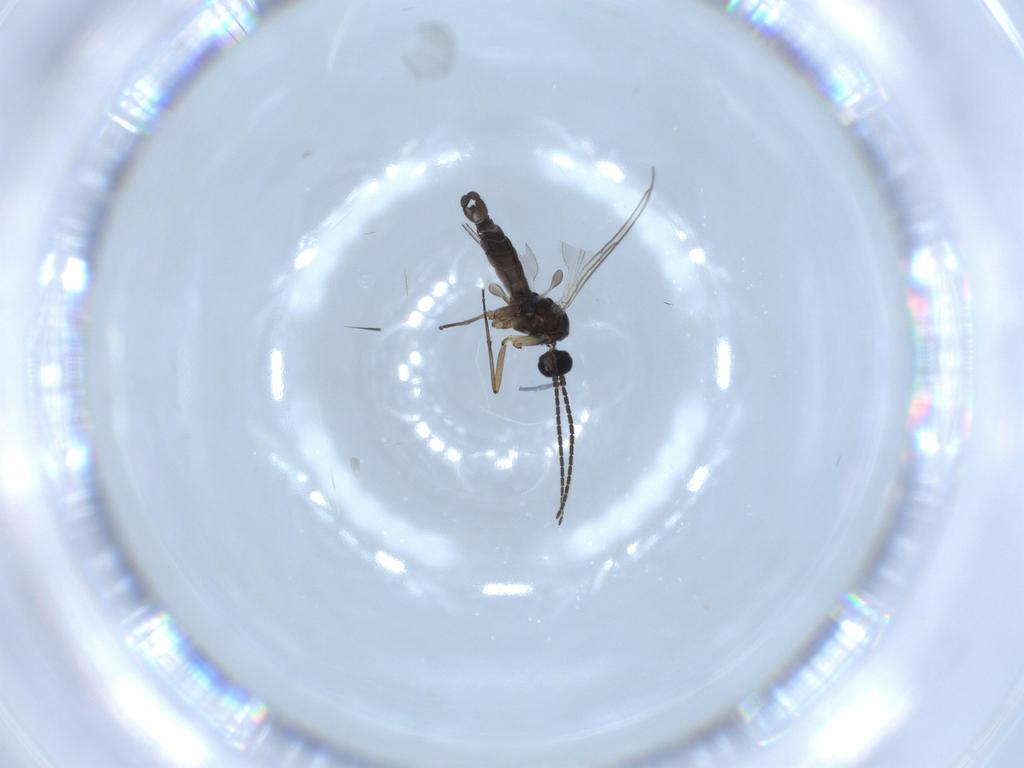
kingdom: Animalia
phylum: Arthropoda
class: Insecta
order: Diptera
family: Sciaridae
